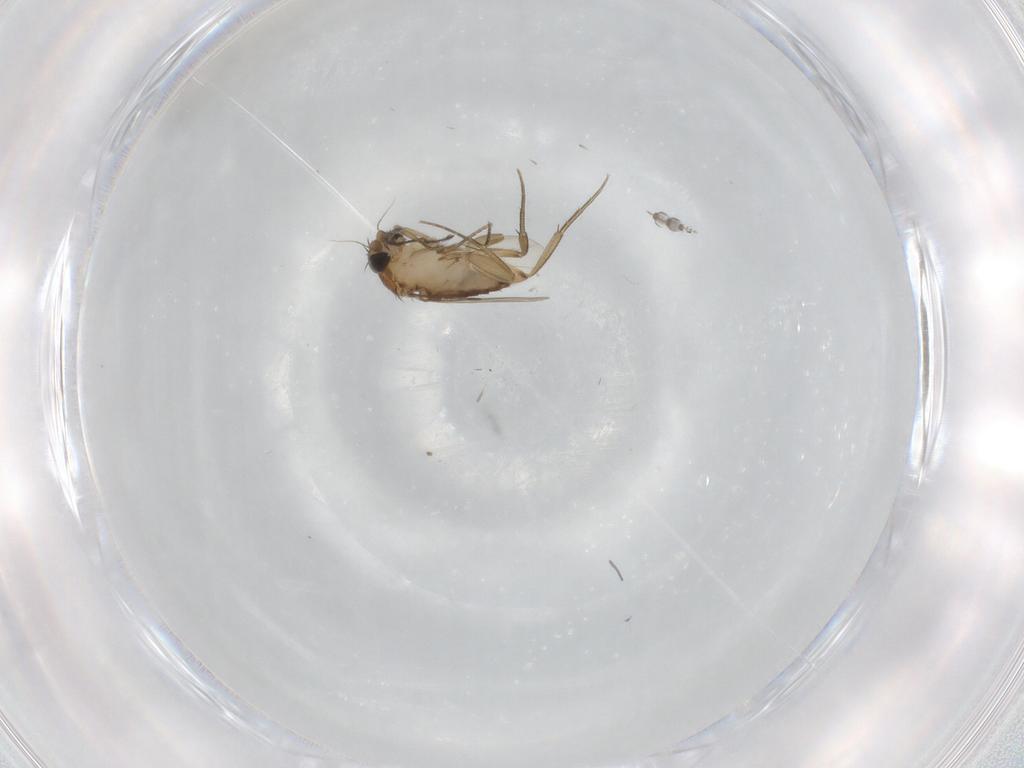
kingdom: Animalia
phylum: Arthropoda
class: Insecta
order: Diptera
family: Phoridae
